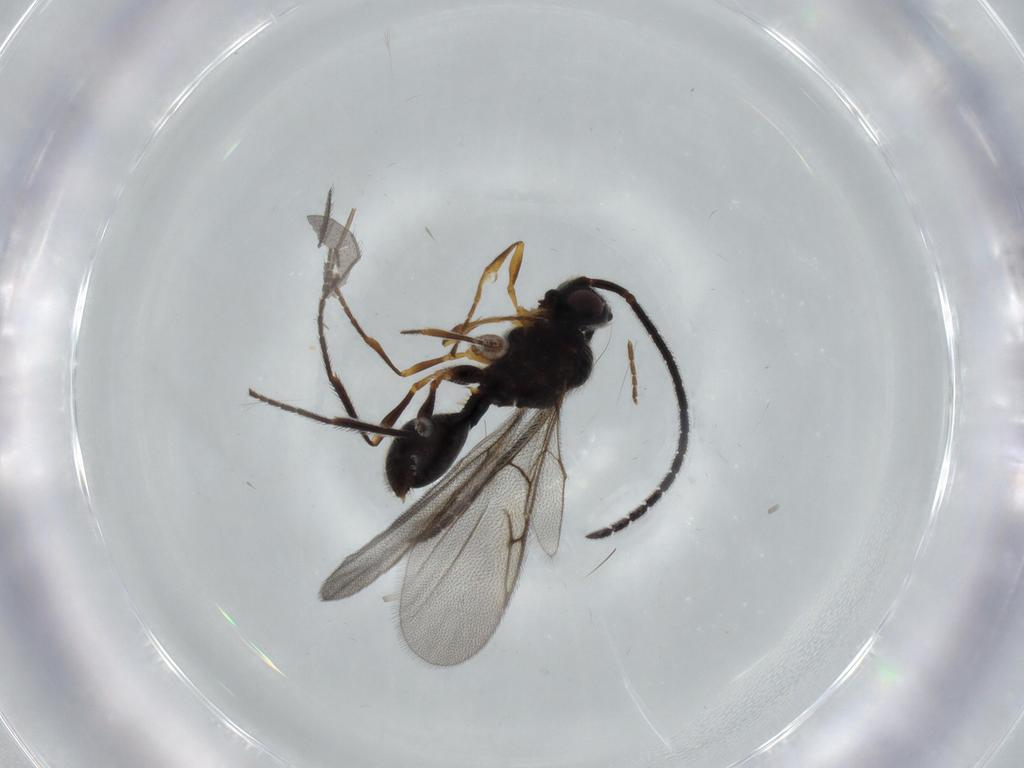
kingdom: Animalia
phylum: Arthropoda
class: Insecta
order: Hymenoptera
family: Diapriidae
